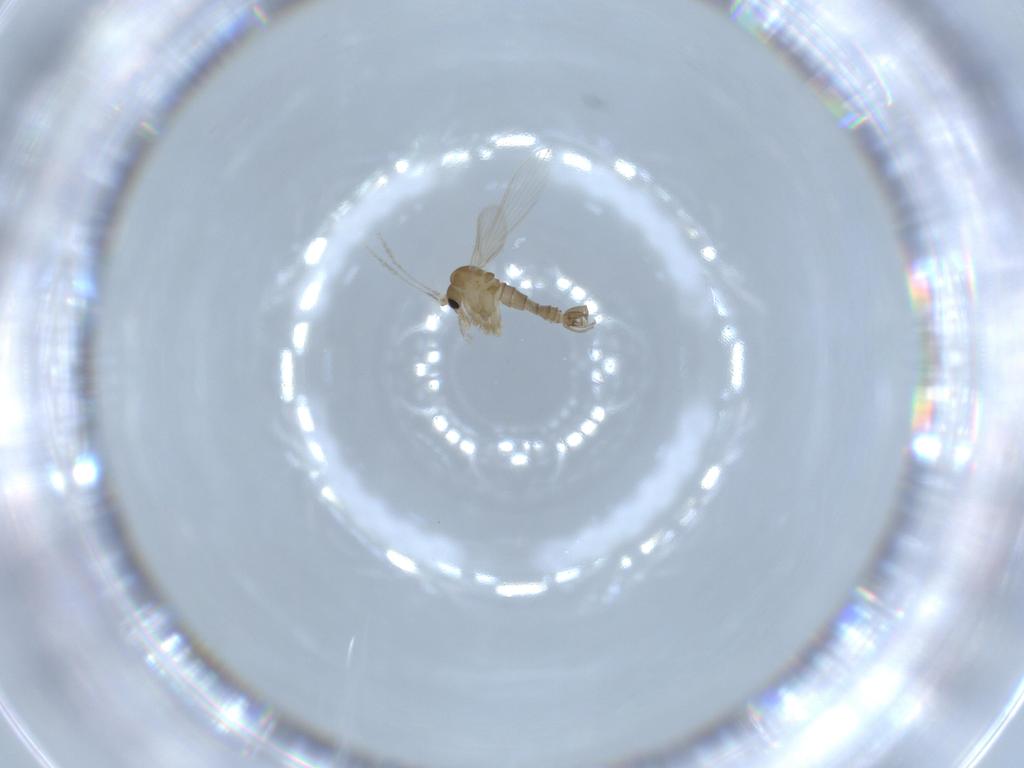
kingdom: Animalia
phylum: Arthropoda
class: Insecta
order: Diptera
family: Psychodidae
